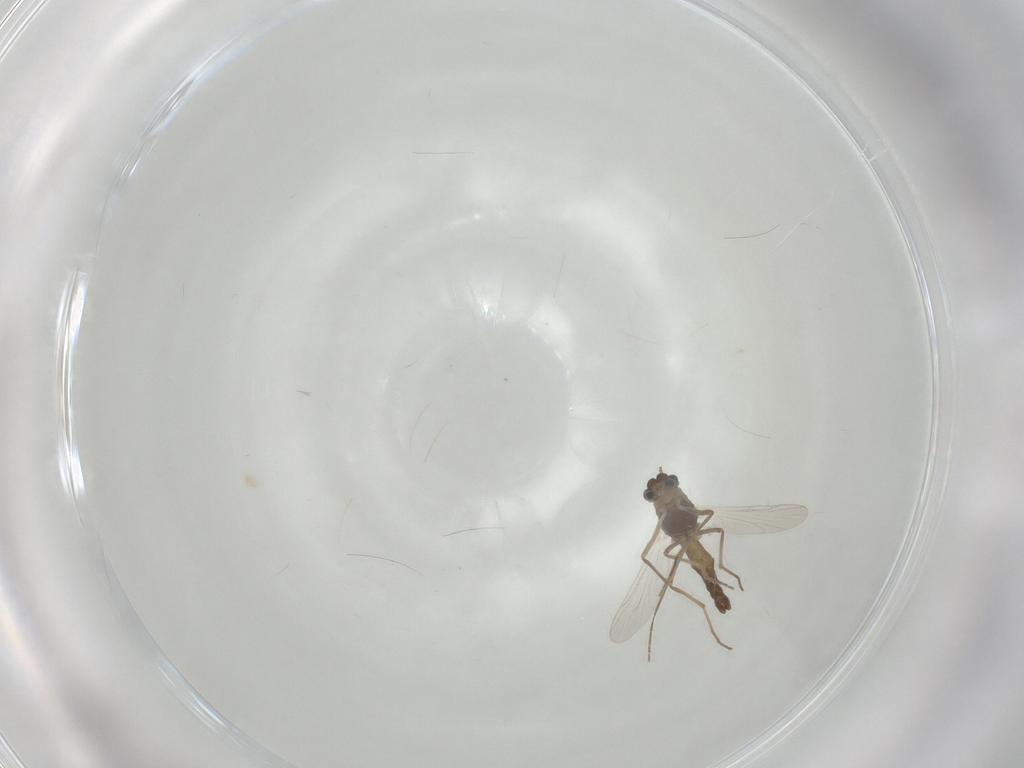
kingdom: Animalia
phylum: Arthropoda
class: Insecta
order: Diptera
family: Chironomidae
